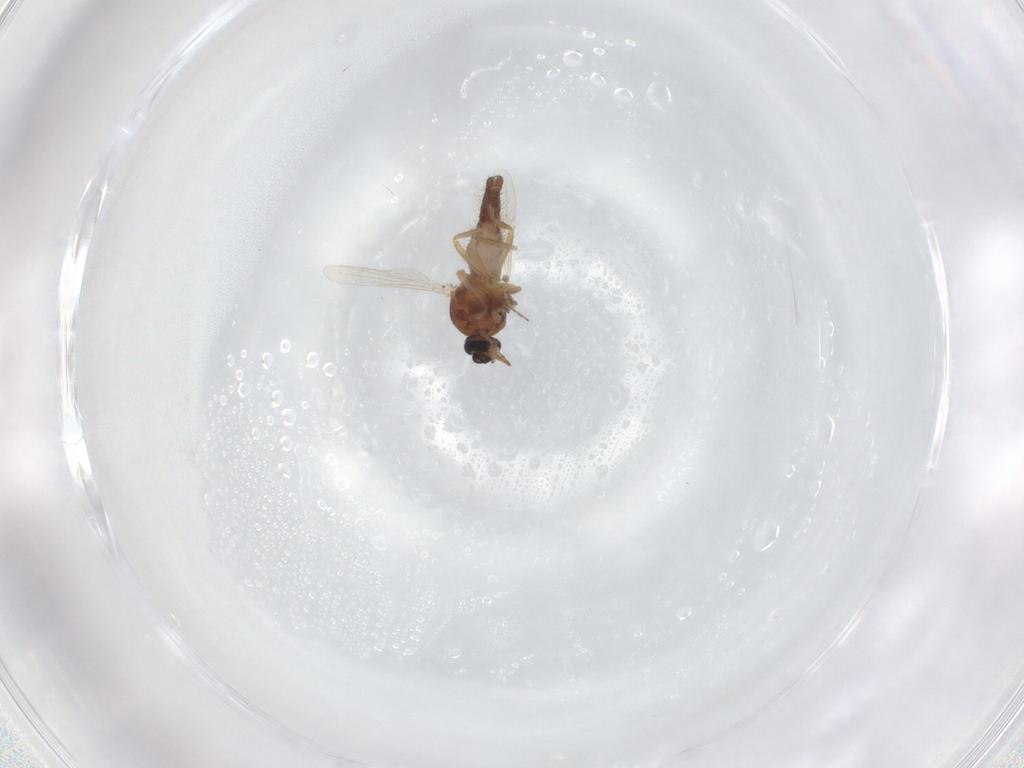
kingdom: Animalia
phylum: Arthropoda
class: Insecta
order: Diptera
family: Ceratopogonidae
